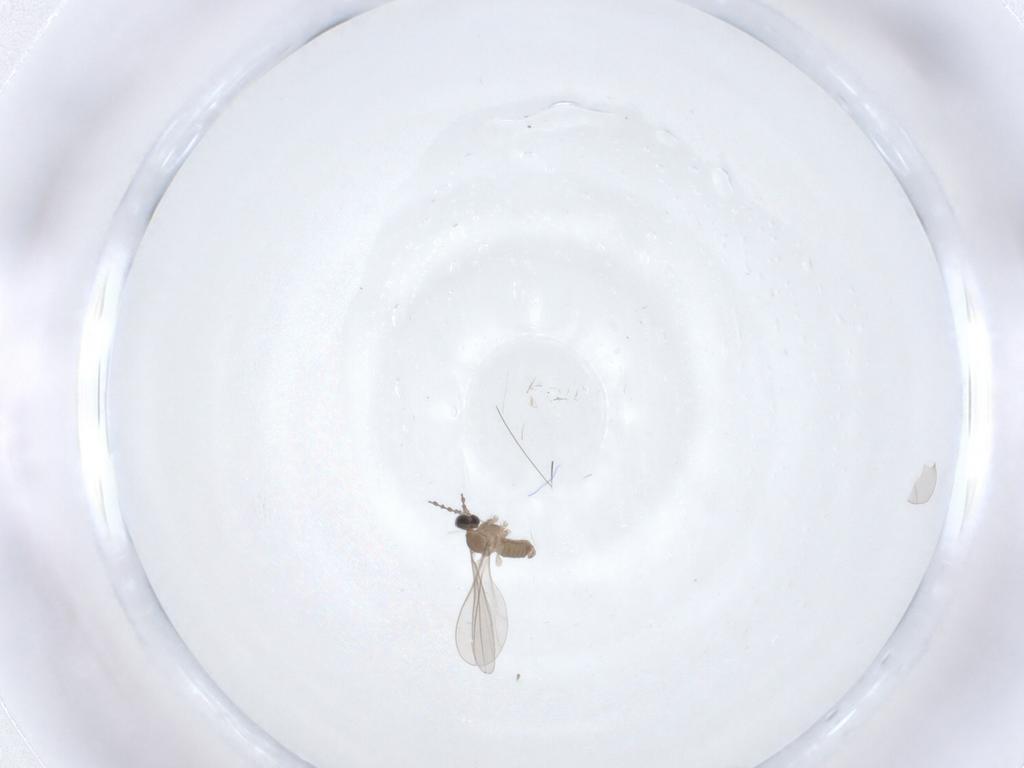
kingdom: Animalia
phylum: Arthropoda
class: Insecta
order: Diptera
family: Cecidomyiidae
